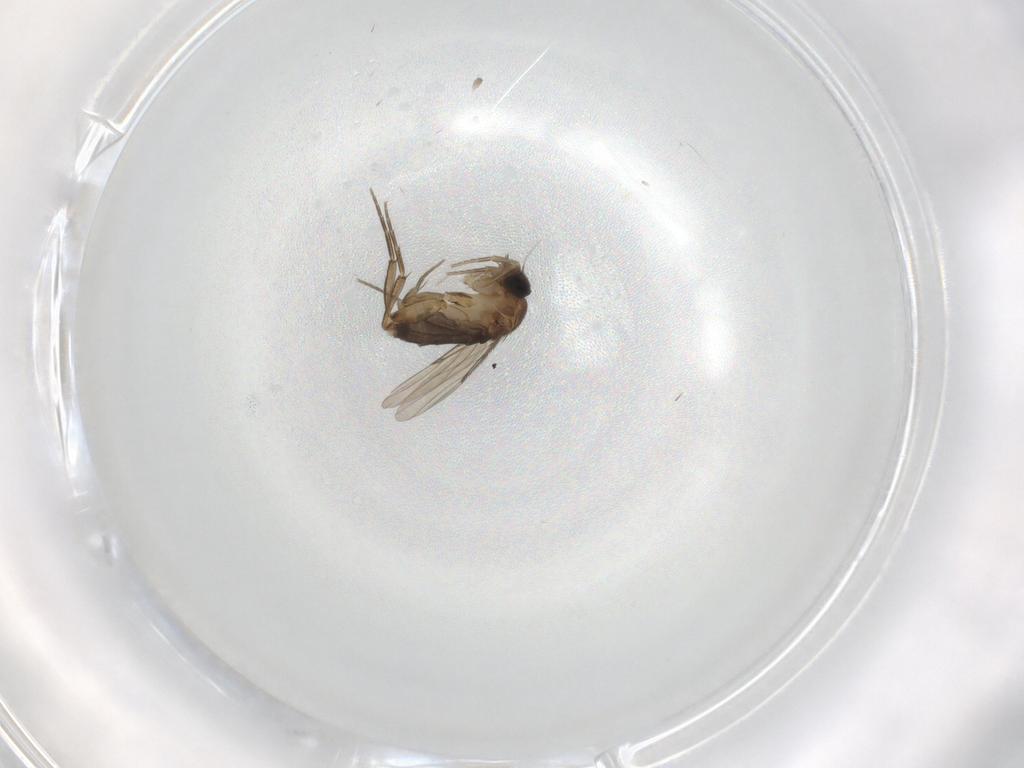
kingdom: Animalia
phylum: Arthropoda
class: Insecta
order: Diptera
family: Phoridae
